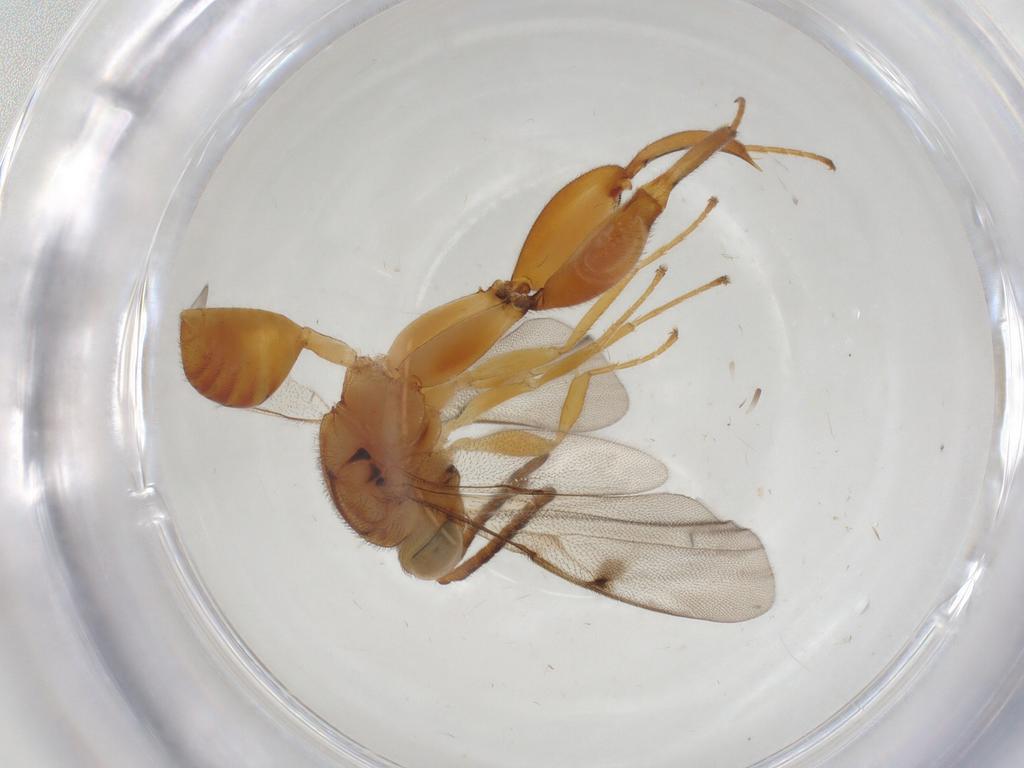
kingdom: Animalia
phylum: Arthropoda
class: Insecta
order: Hymenoptera
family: Chalcididae
